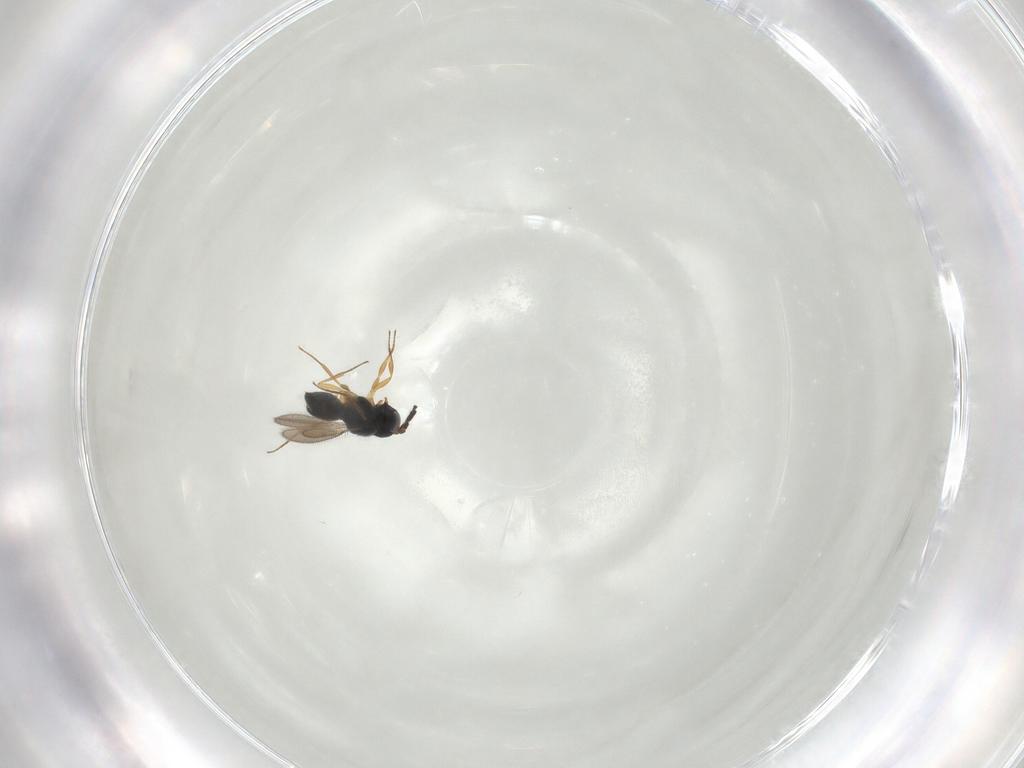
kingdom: Animalia
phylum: Arthropoda
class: Insecta
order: Hymenoptera
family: Scelionidae
